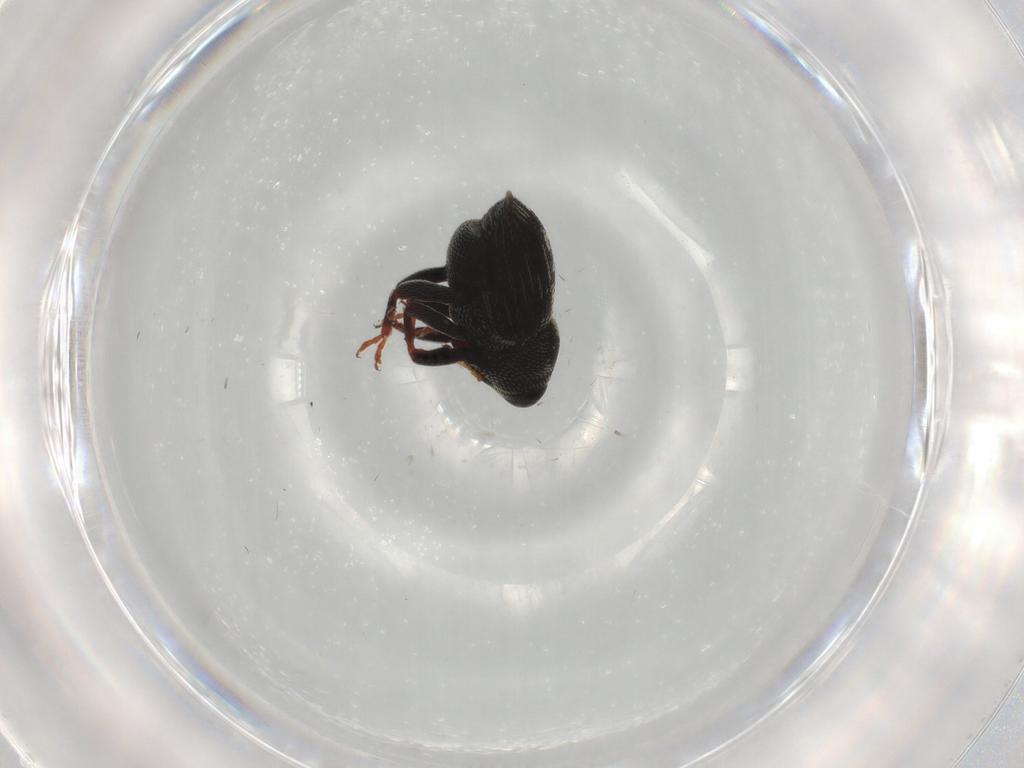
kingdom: Animalia
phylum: Arthropoda
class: Insecta
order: Coleoptera
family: Curculionidae
